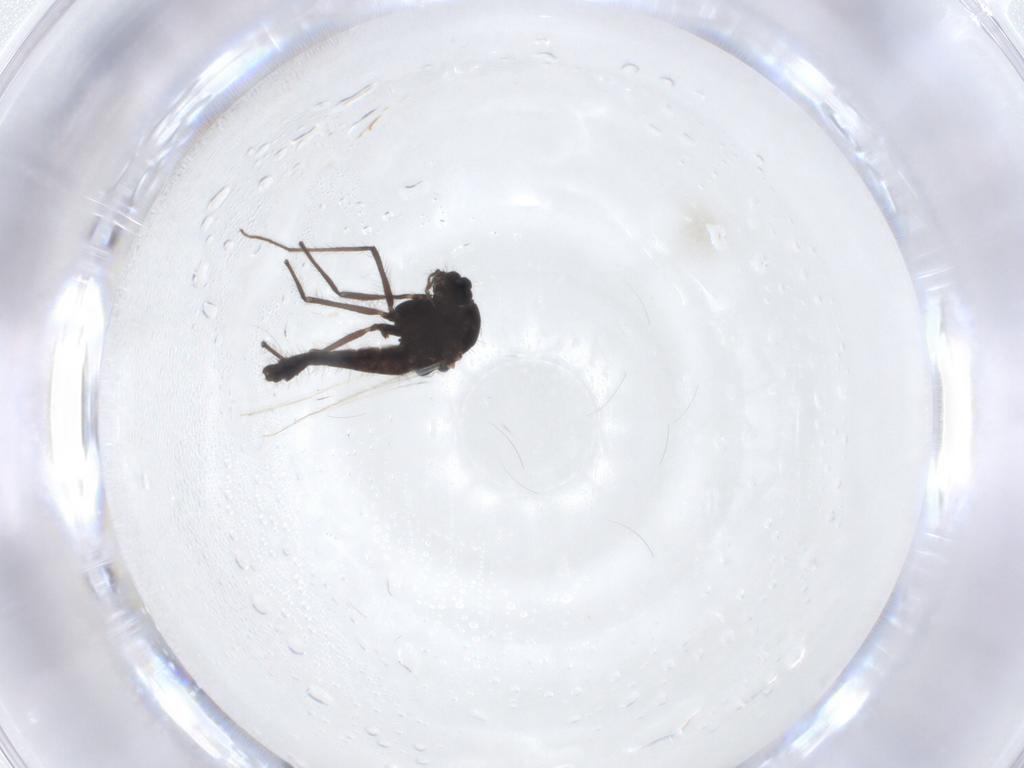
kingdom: Animalia
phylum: Arthropoda
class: Insecta
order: Diptera
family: Chironomidae
